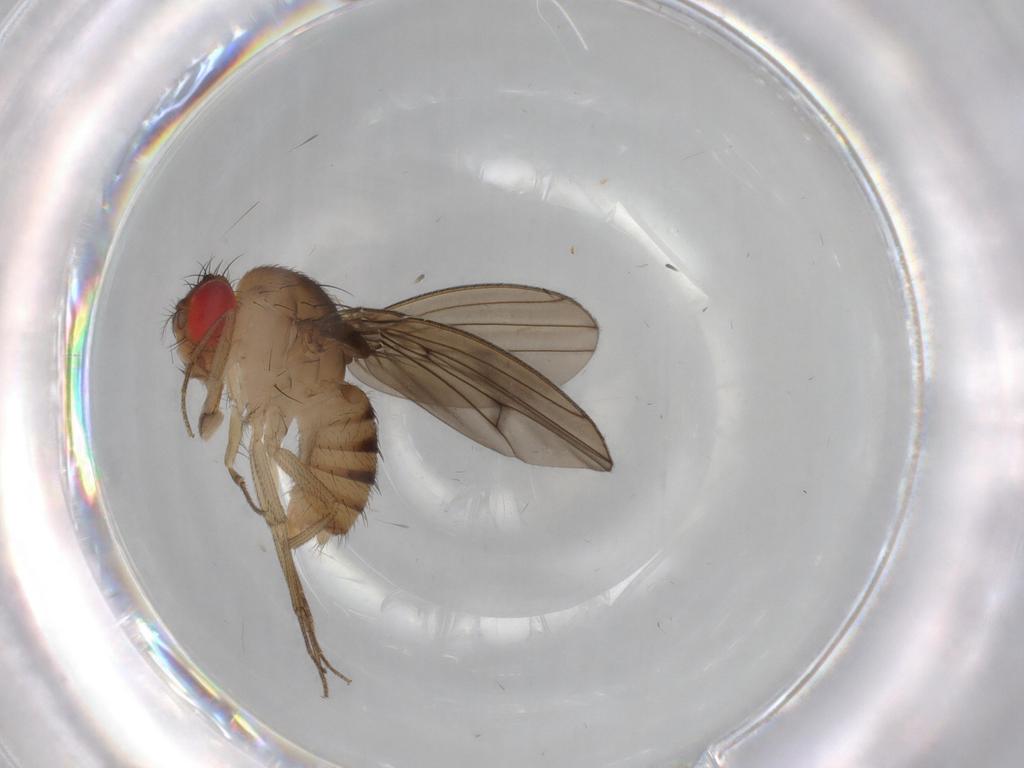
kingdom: Animalia
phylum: Arthropoda
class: Insecta
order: Diptera
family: Drosophilidae
